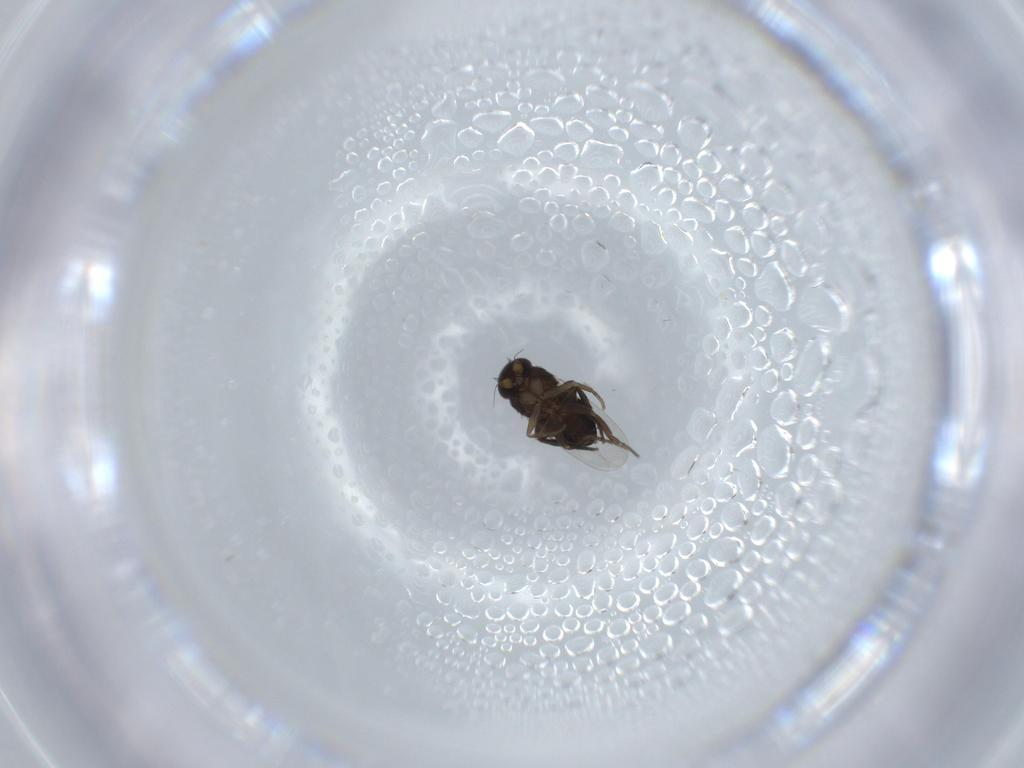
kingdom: Animalia
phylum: Arthropoda
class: Insecta
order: Diptera
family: Phoridae
